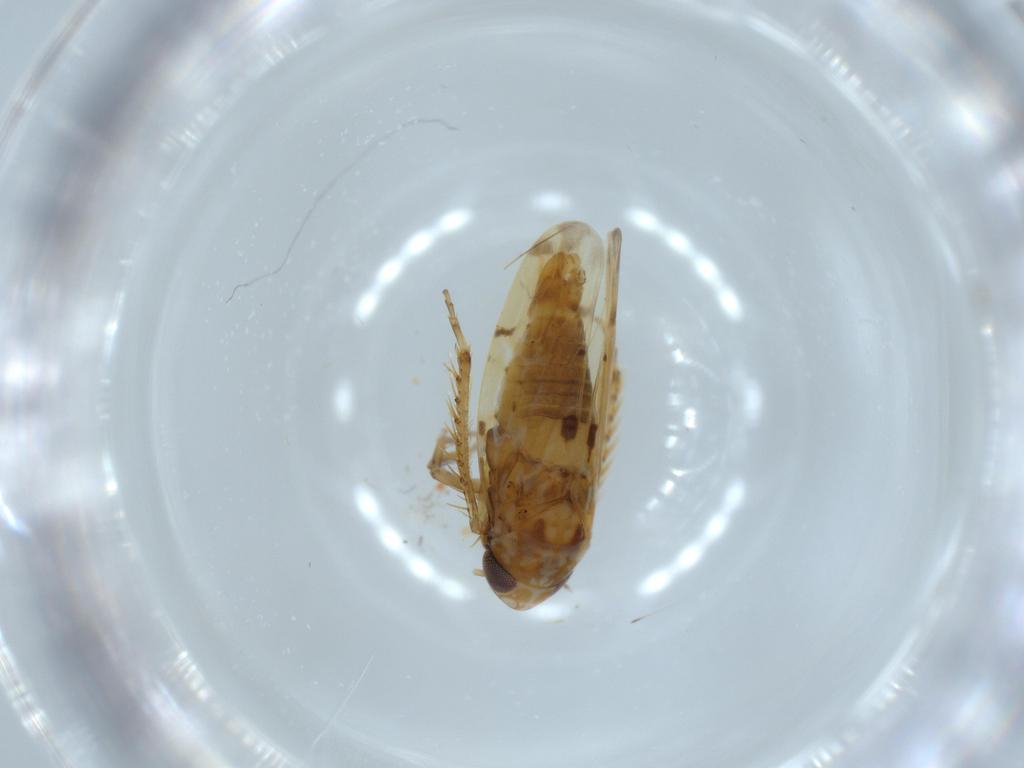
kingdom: Animalia
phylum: Arthropoda
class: Insecta
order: Hemiptera
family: Cicadellidae
